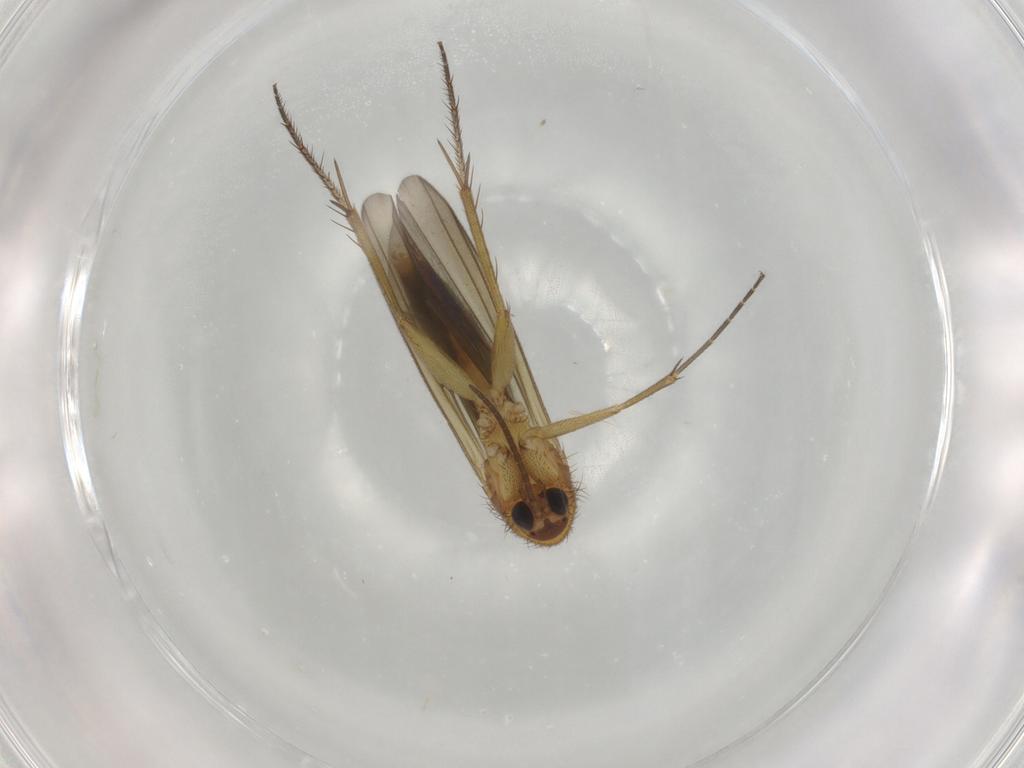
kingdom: Animalia
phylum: Arthropoda
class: Insecta
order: Diptera
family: Mycetophilidae
